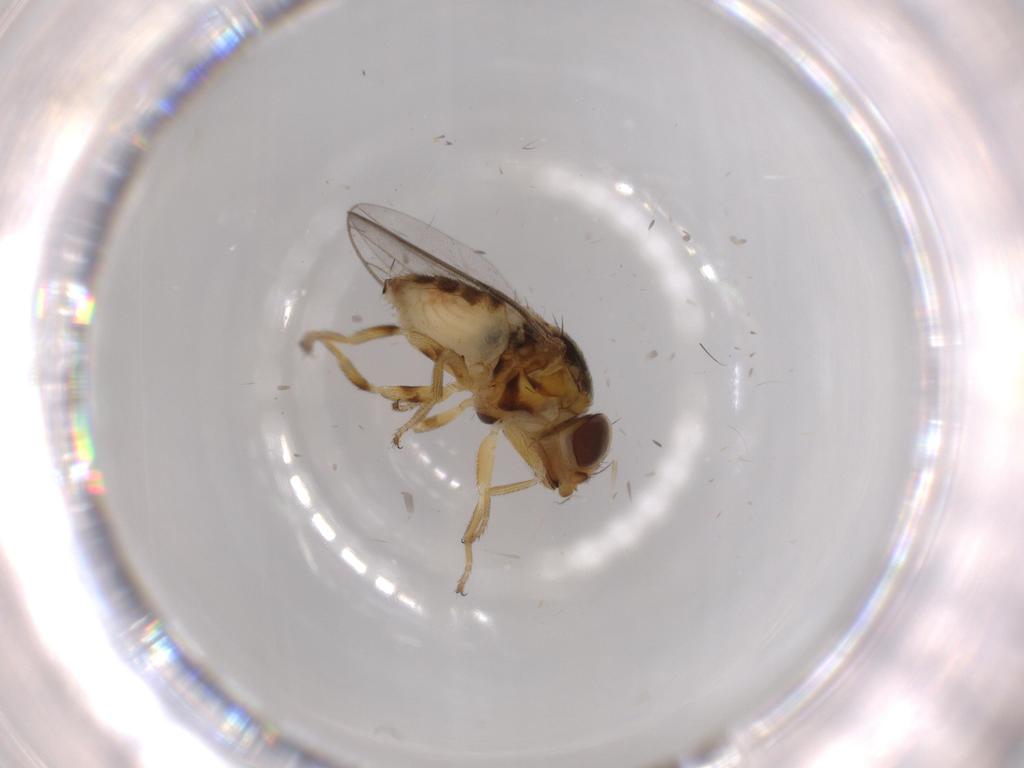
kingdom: Animalia
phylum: Arthropoda
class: Insecta
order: Diptera
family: Chloropidae
